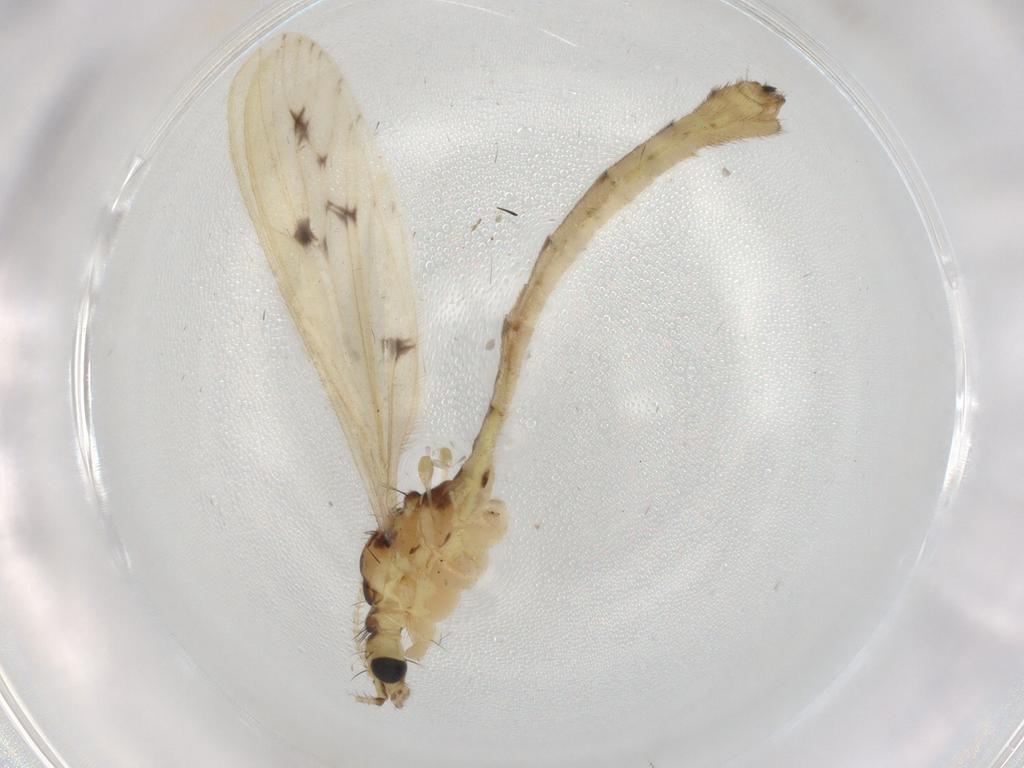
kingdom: Animalia
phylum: Arthropoda
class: Insecta
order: Diptera
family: Limoniidae
